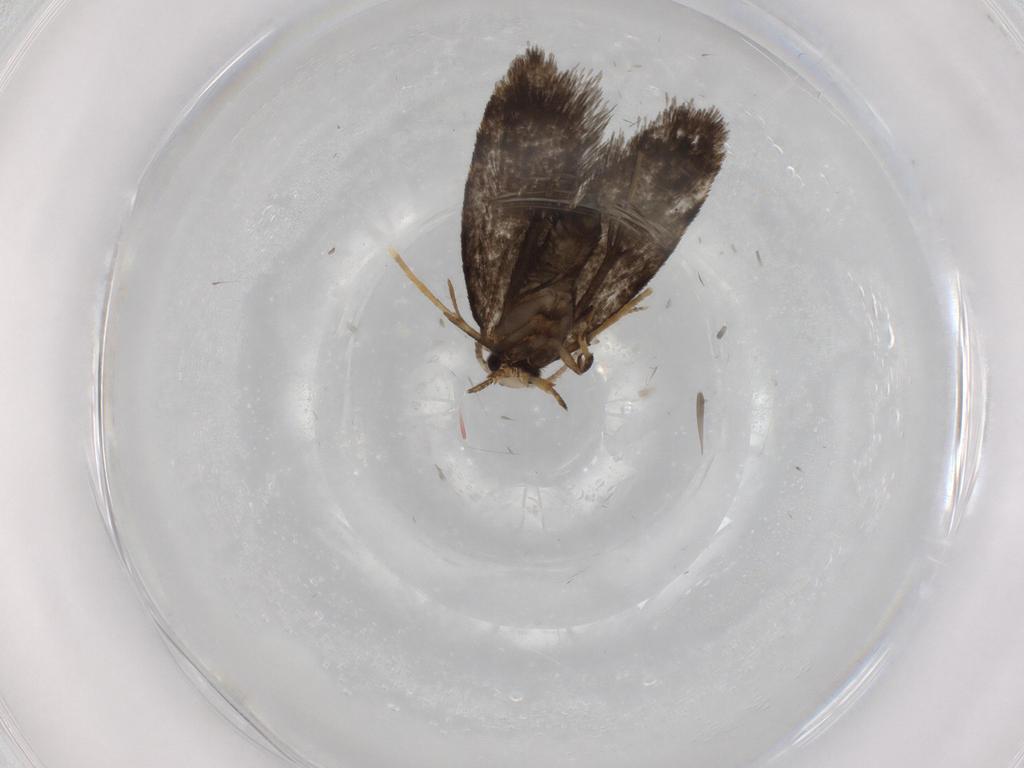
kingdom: Animalia
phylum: Arthropoda
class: Insecta
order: Lepidoptera
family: Psychidae
